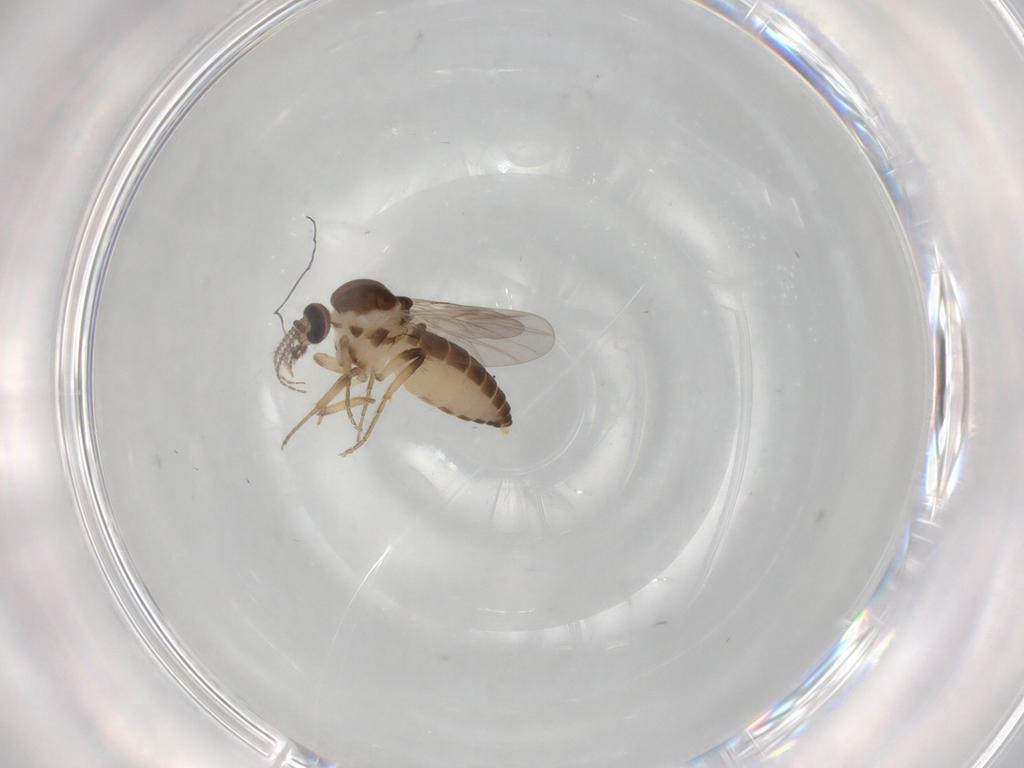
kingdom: Animalia
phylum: Arthropoda
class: Insecta
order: Diptera
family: Ceratopogonidae
